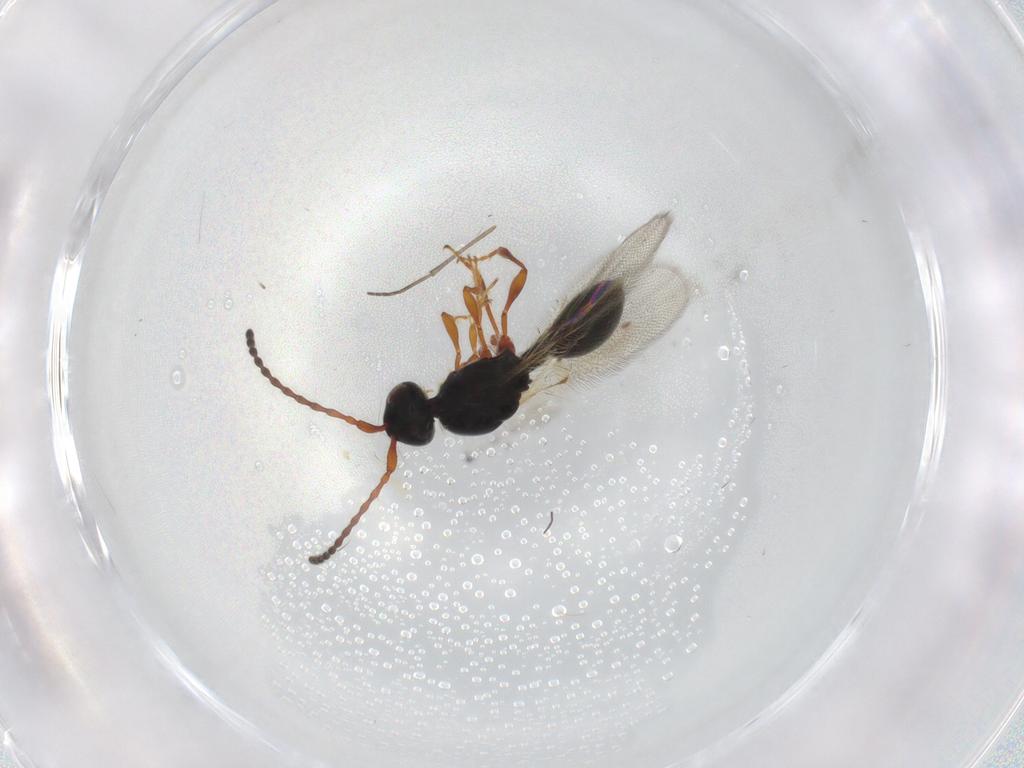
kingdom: Animalia
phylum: Arthropoda
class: Insecta
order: Hymenoptera
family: Diapriidae
